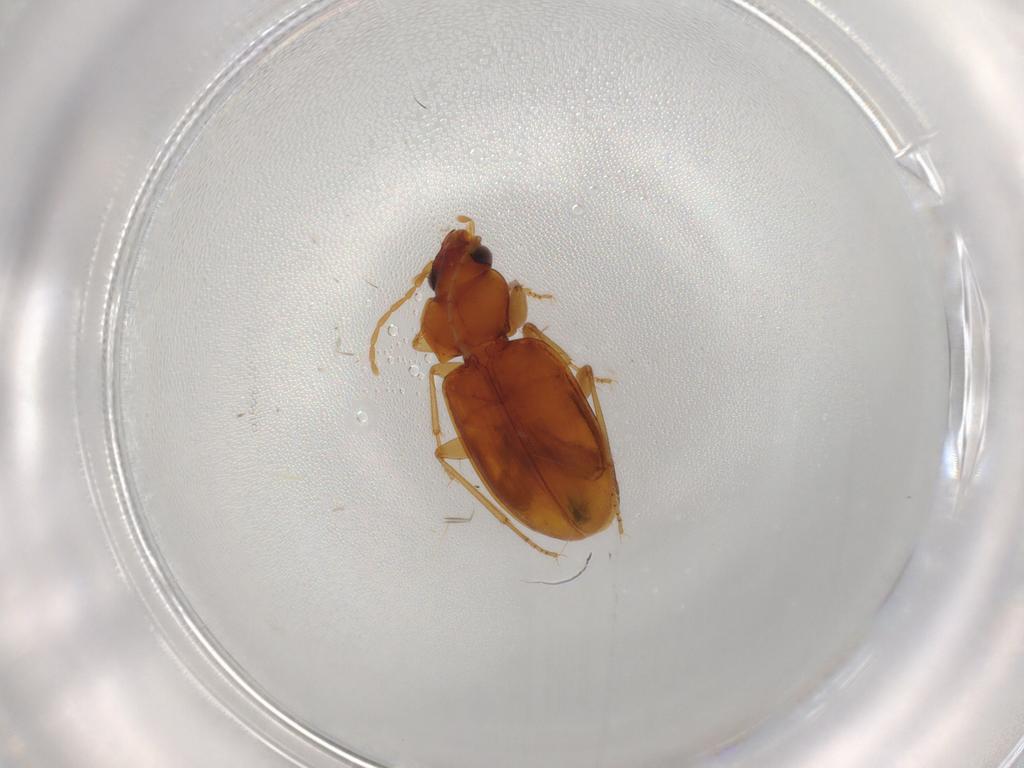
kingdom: Animalia
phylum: Arthropoda
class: Insecta
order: Coleoptera
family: Carabidae
